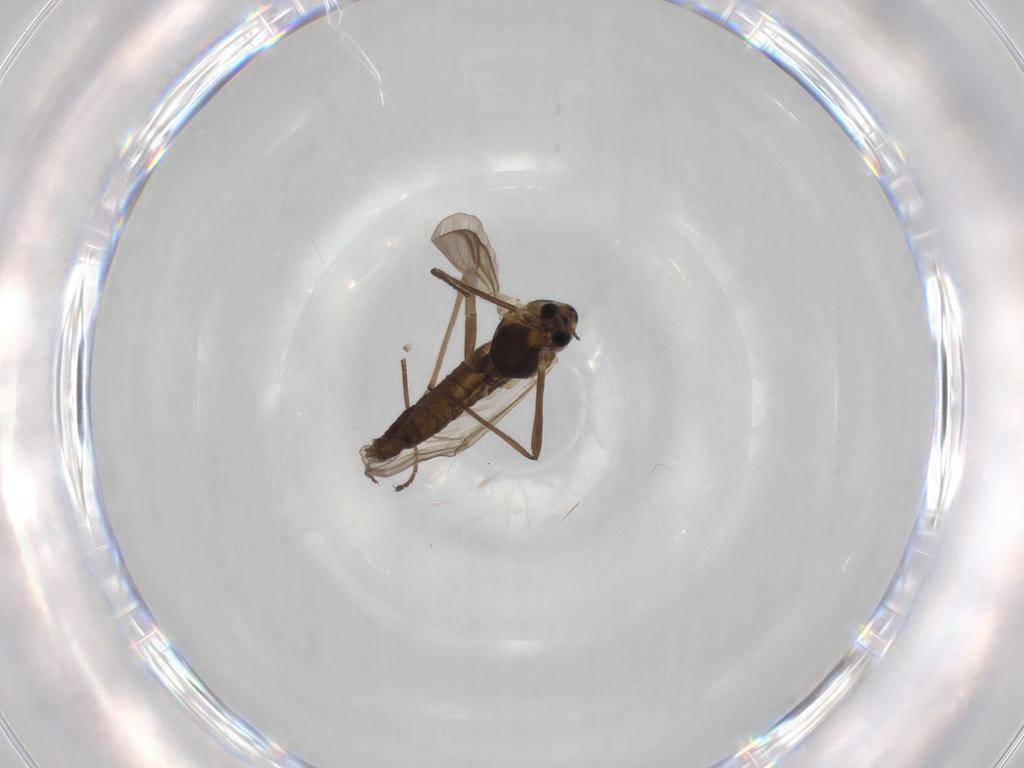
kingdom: Animalia
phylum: Arthropoda
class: Insecta
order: Diptera
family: Chironomidae
